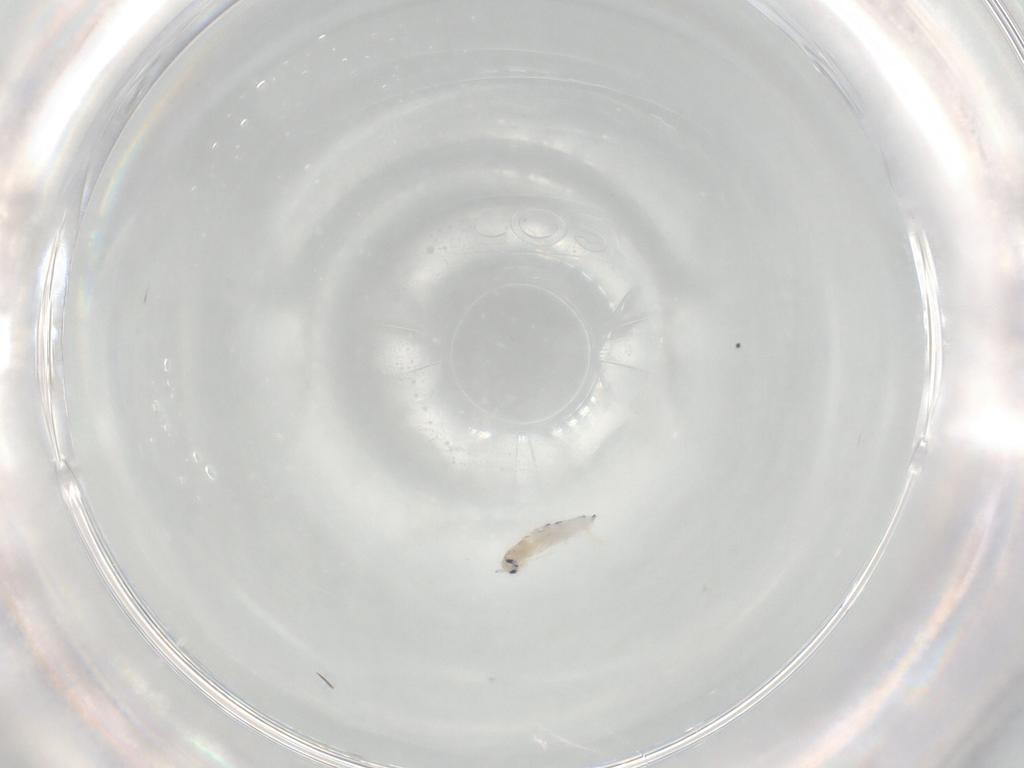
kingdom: Animalia
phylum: Arthropoda
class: Collembola
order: Entomobryomorpha
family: Entomobryidae
